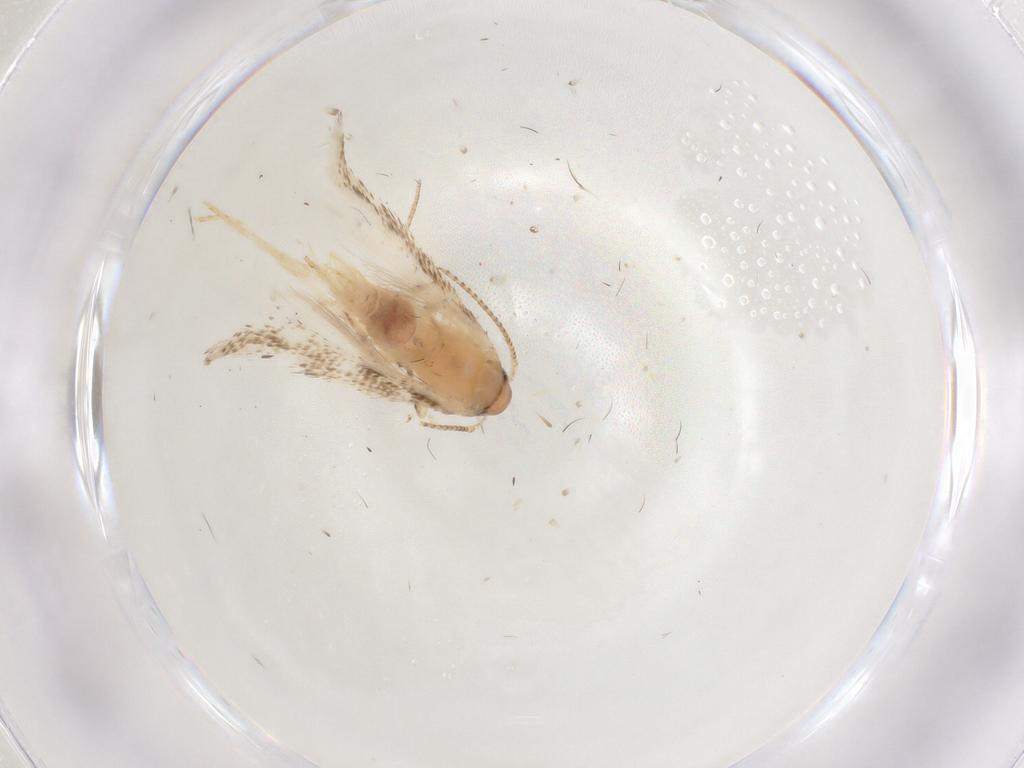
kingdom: Animalia
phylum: Arthropoda
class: Insecta
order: Lepidoptera
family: Gelechiidae
